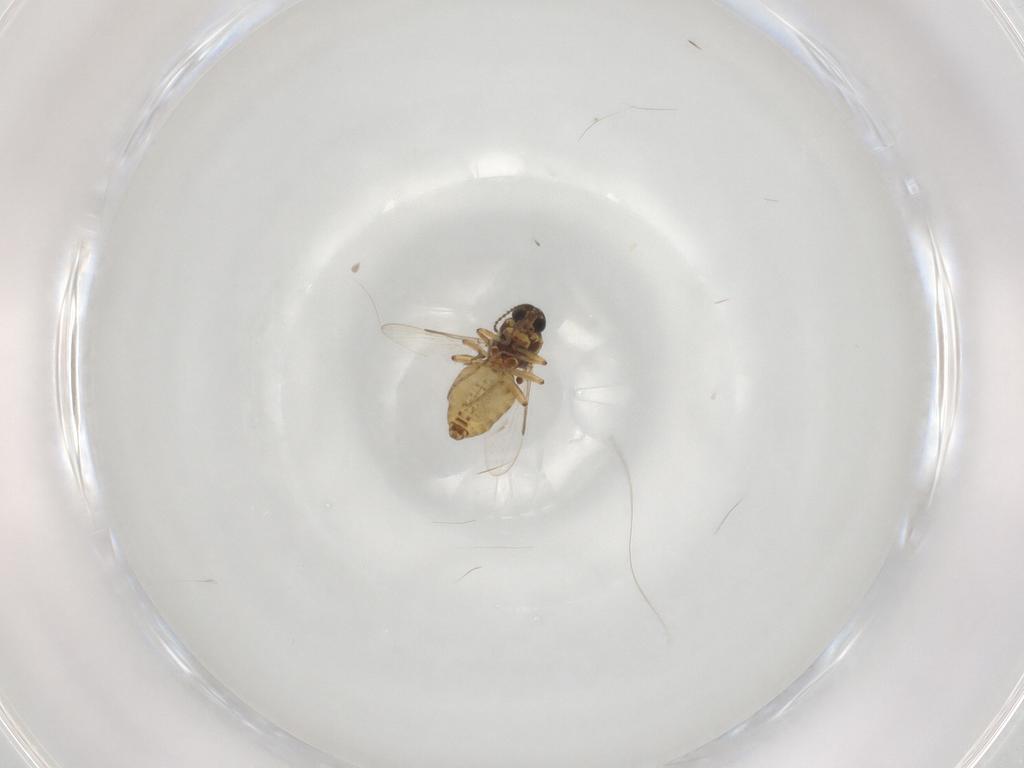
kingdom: Animalia
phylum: Arthropoda
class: Insecta
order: Diptera
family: Ceratopogonidae
